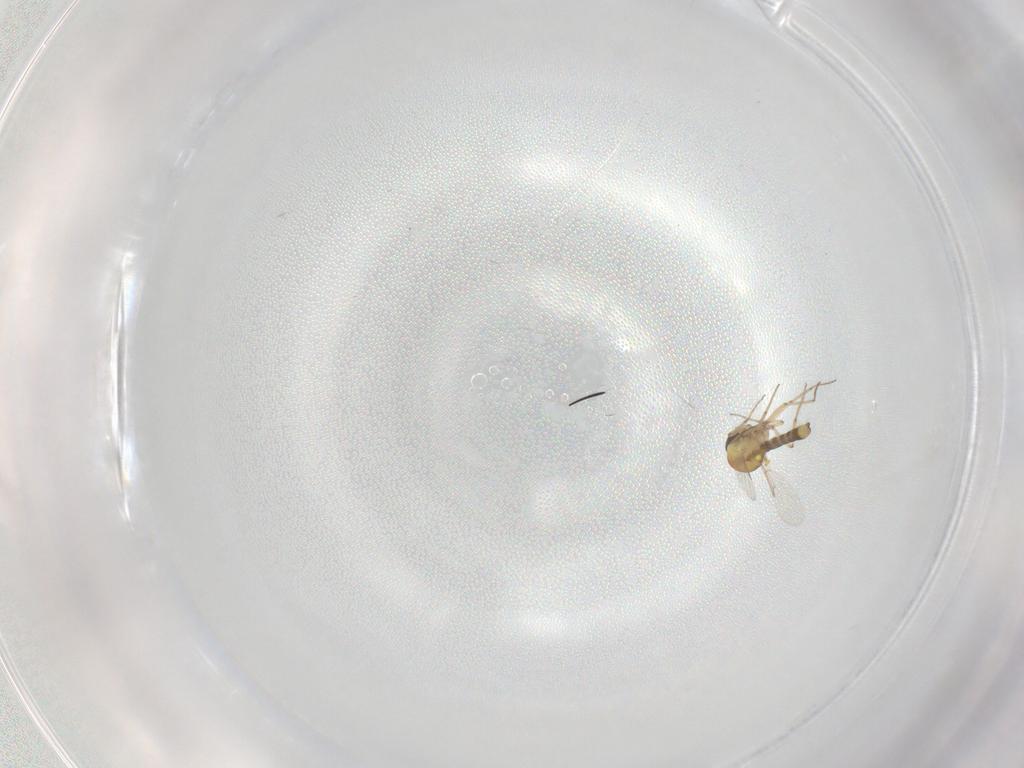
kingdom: Animalia
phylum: Arthropoda
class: Insecta
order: Diptera
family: Ceratopogonidae
